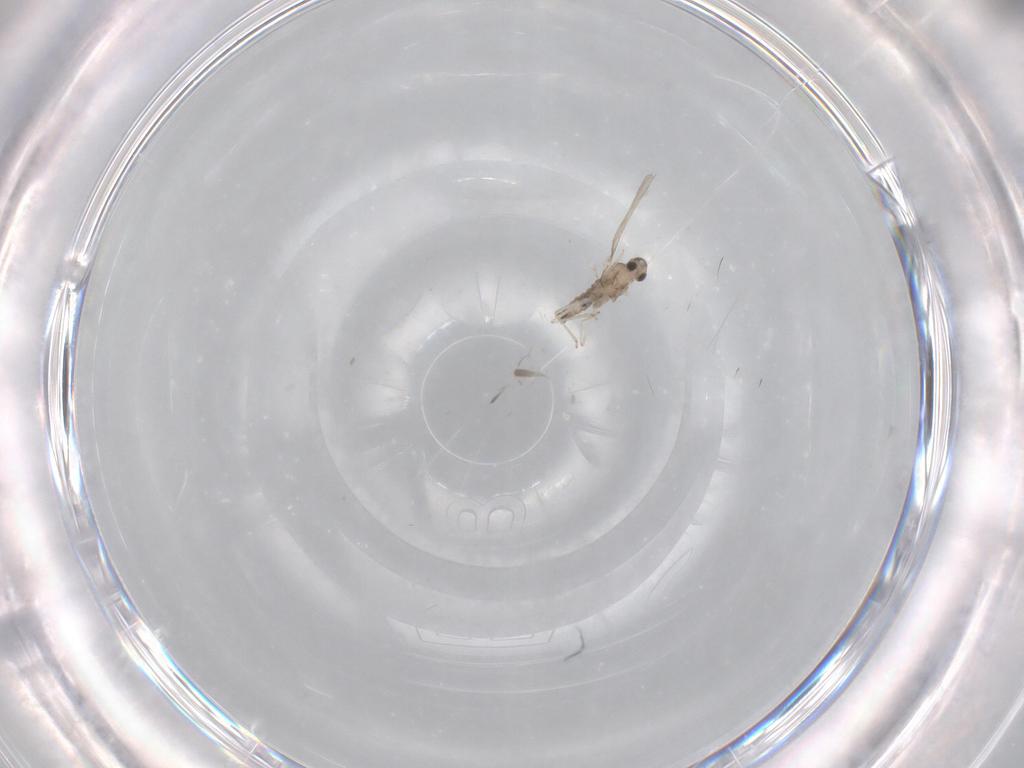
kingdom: Animalia
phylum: Arthropoda
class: Insecta
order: Diptera
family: Cecidomyiidae
